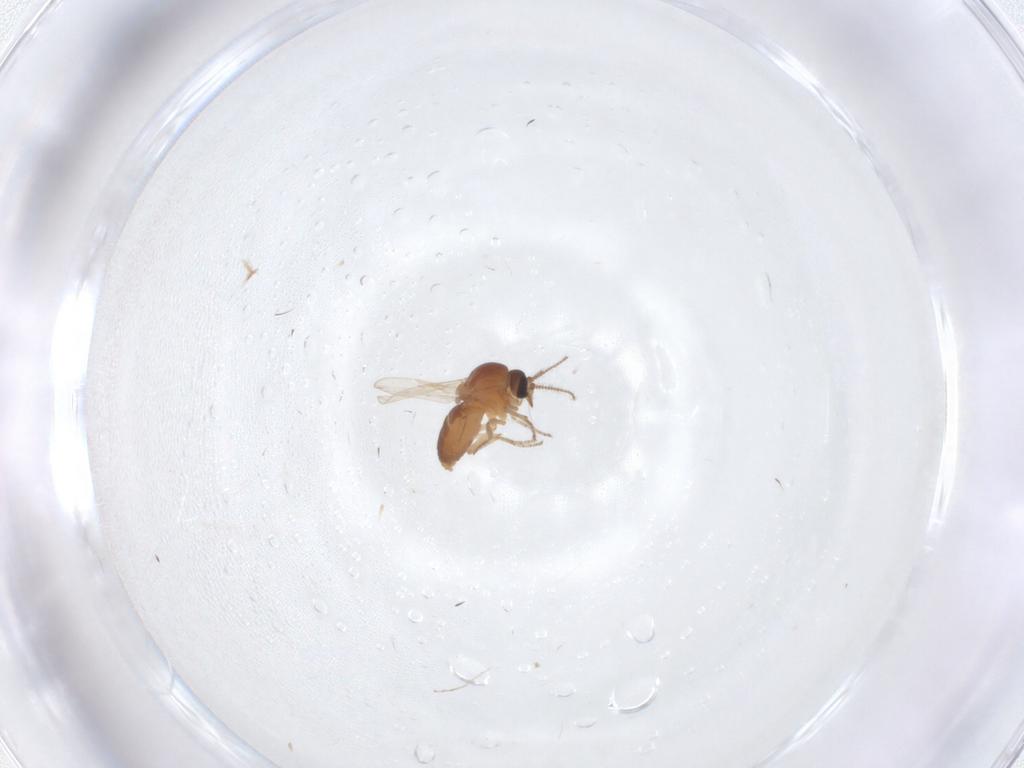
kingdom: Animalia
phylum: Arthropoda
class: Insecta
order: Diptera
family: Ceratopogonidae
